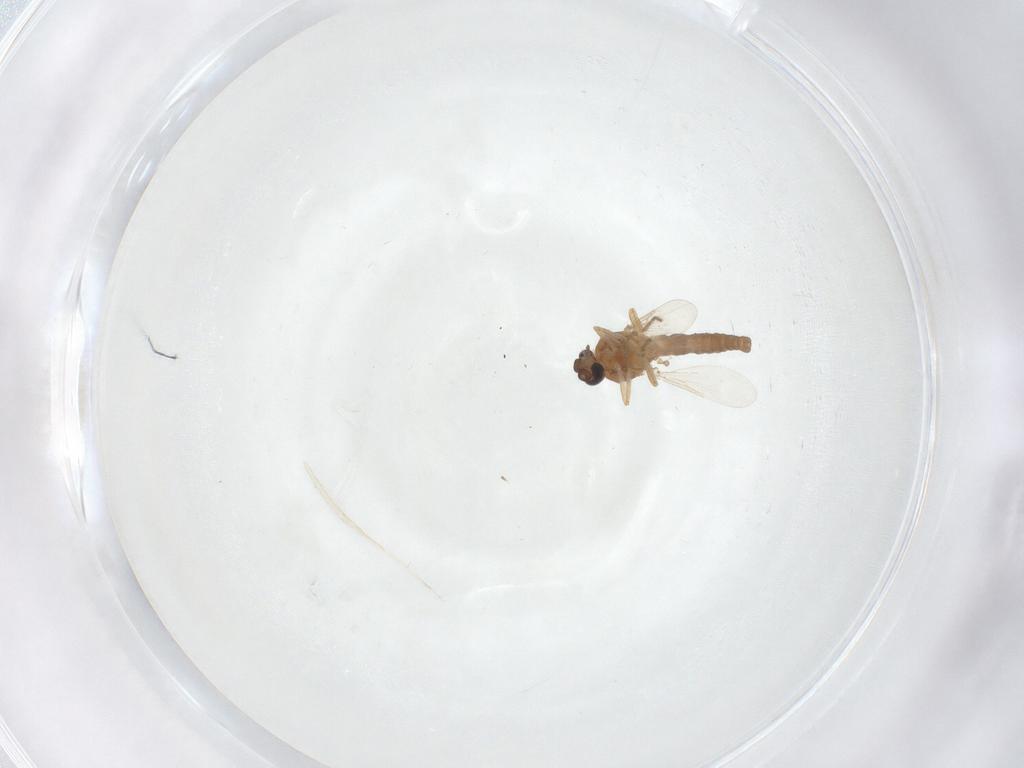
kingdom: Animalia
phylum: Arthropoda
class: Insecta
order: Diptera
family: Ceratopogonidae
